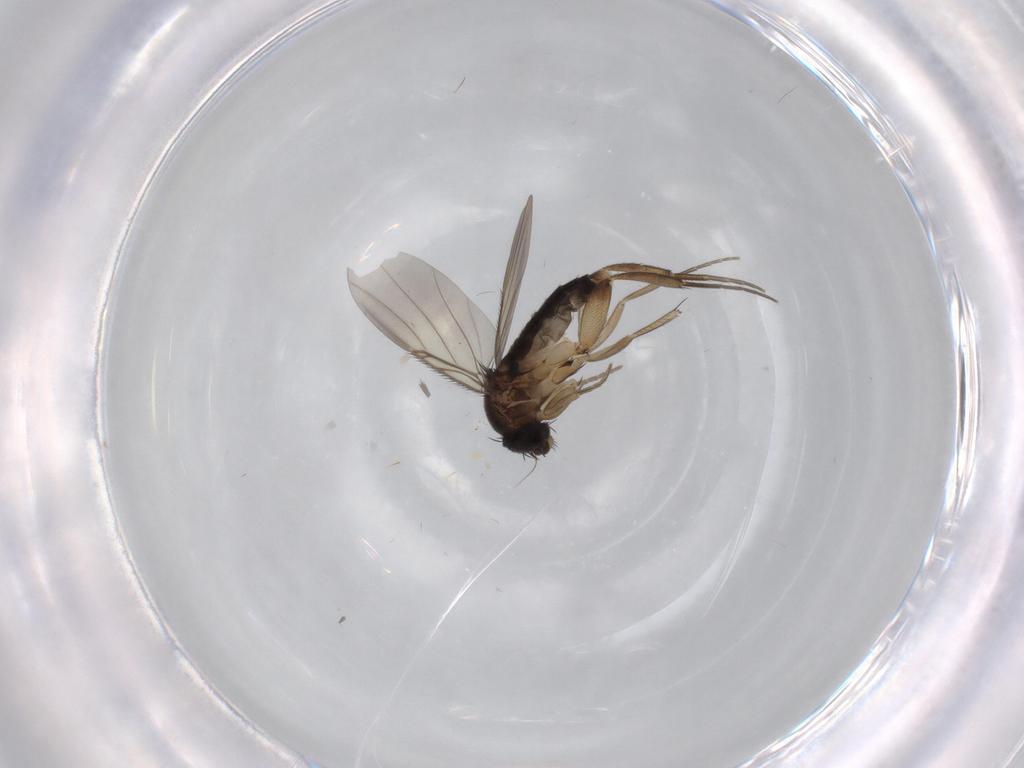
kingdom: Animalia
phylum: Arthropoda
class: Insecta
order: Diptera
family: Phoridae
